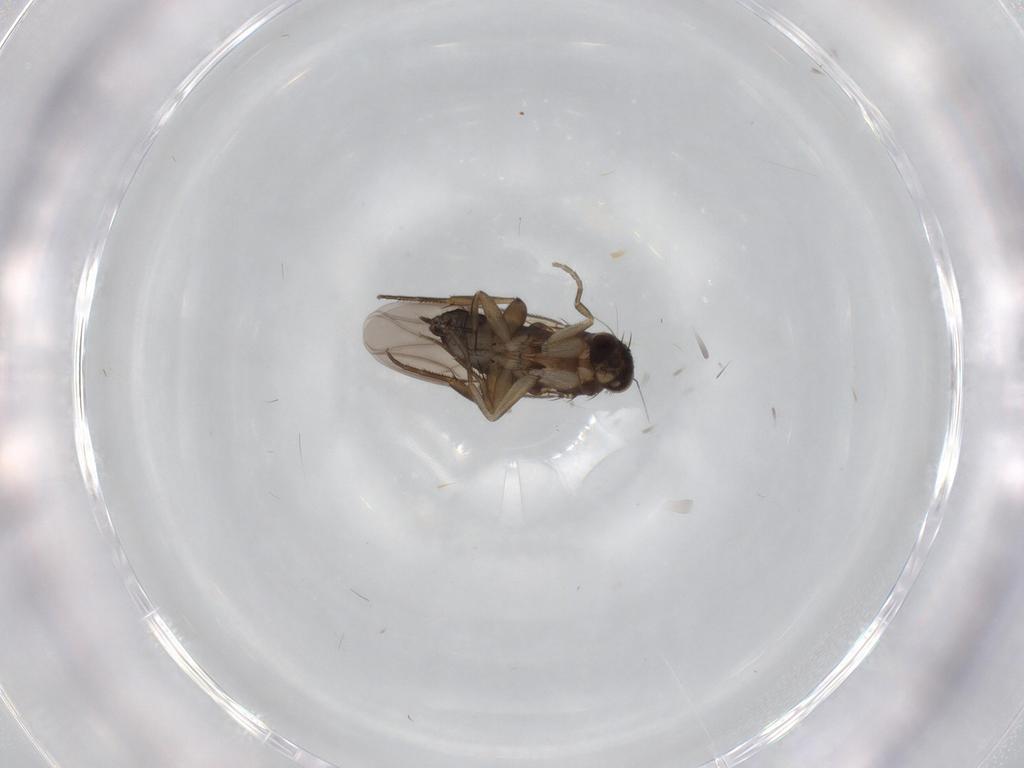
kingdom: Animalia
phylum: Arthropoda
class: Insecta
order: Diptera
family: Phoridae
